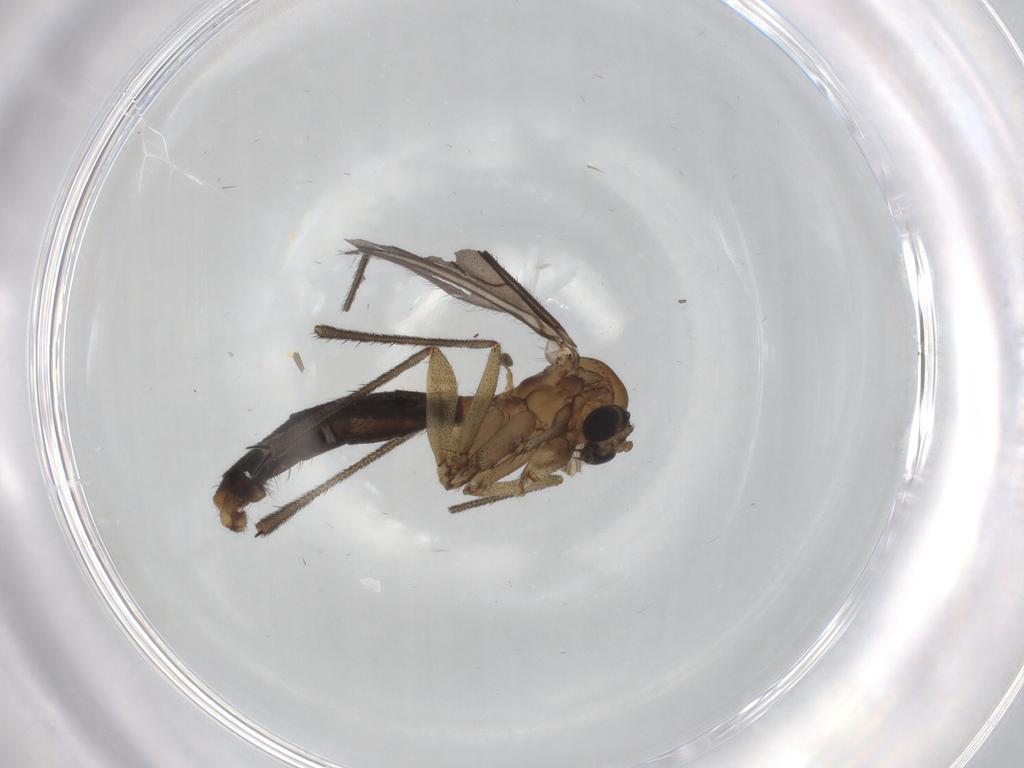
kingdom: Animalia
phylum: Arthropoda
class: Insecta
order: Diptera
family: Ditomyiidae
